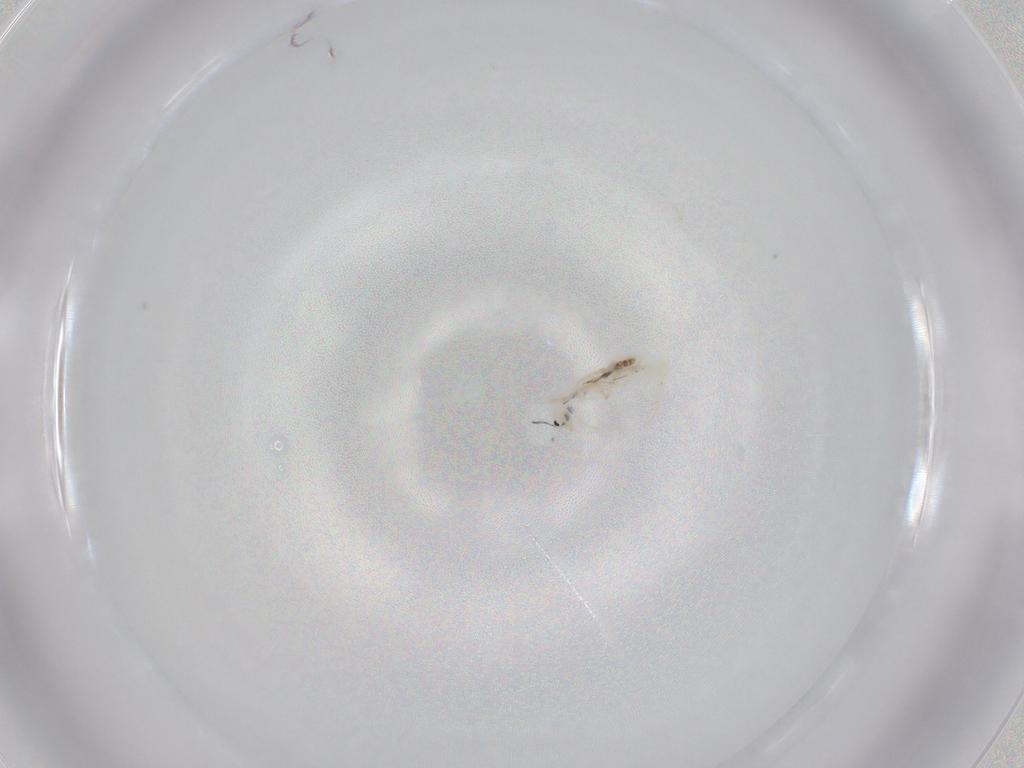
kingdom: Animalia
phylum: Arthropoda
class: Collembola
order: Entomobryomorpha
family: Entomobryidae
